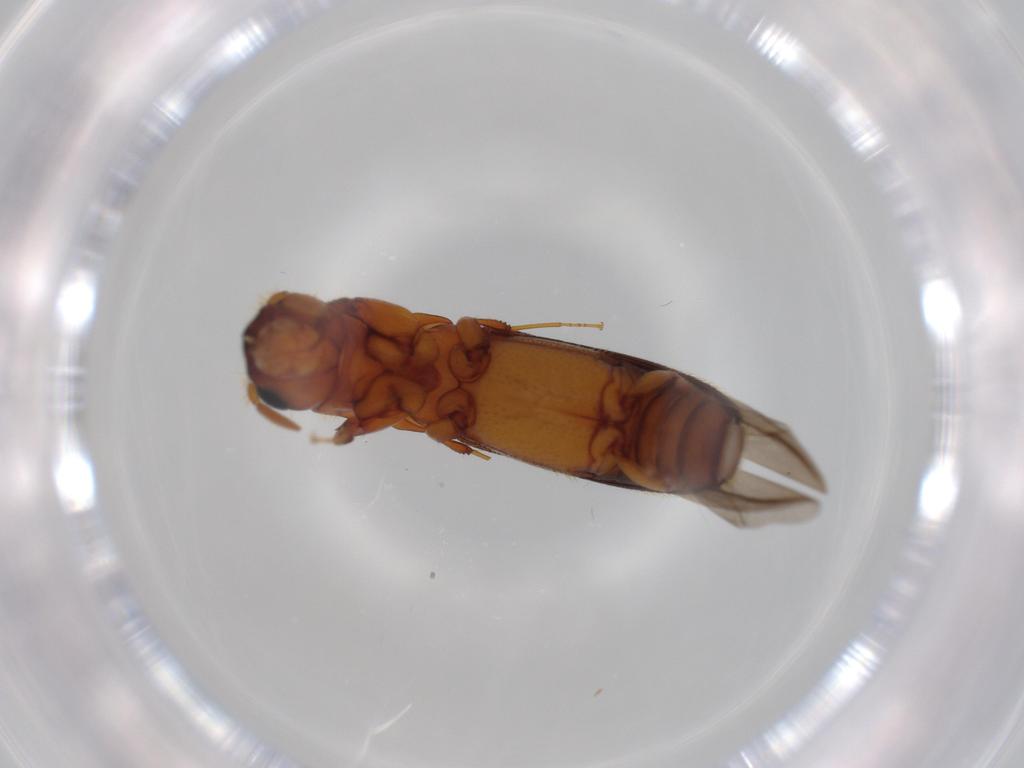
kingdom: Animalia
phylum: Arthropoda
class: Insecta
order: Coleoptera
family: Curculionidae
